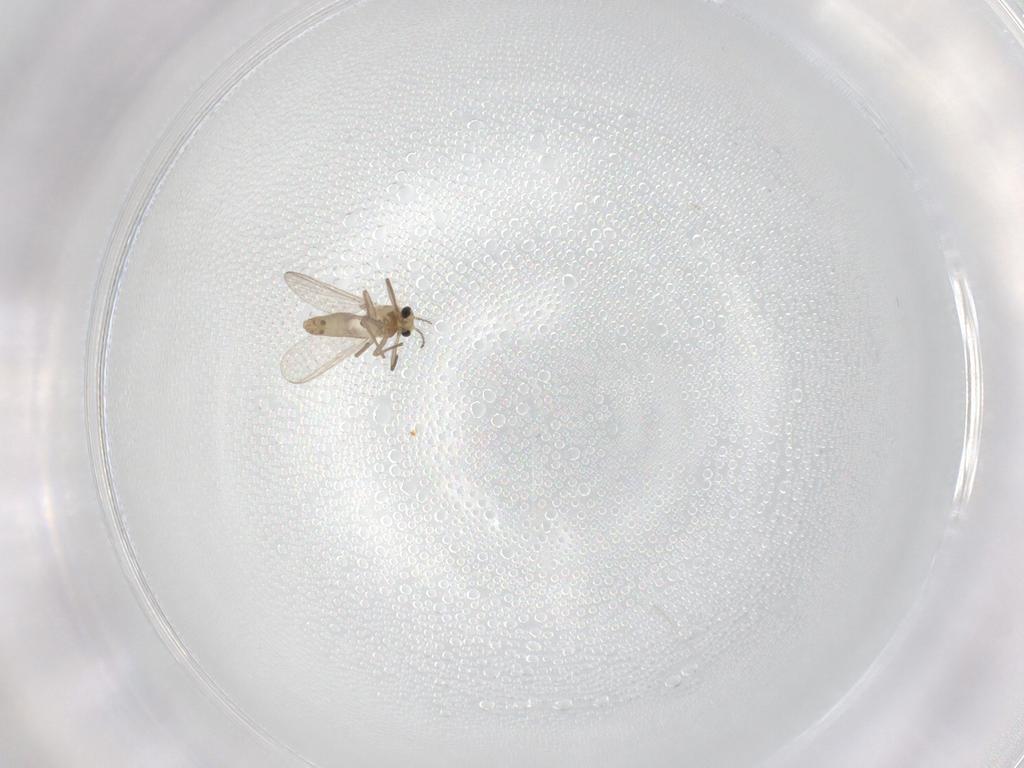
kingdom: Animalia
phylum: Arthropoda
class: Insecta
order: Diptera
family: Chironomidae
